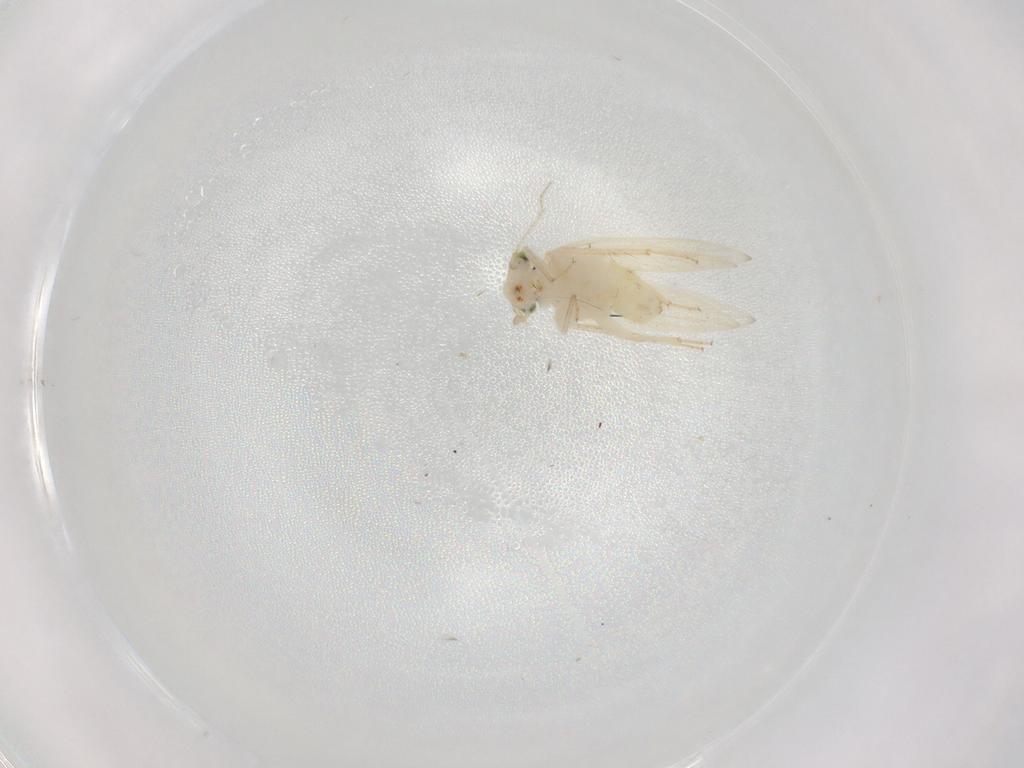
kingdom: Animalia
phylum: Arthropoda
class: Insecta
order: Psocodea
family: Lepidopsocidae
